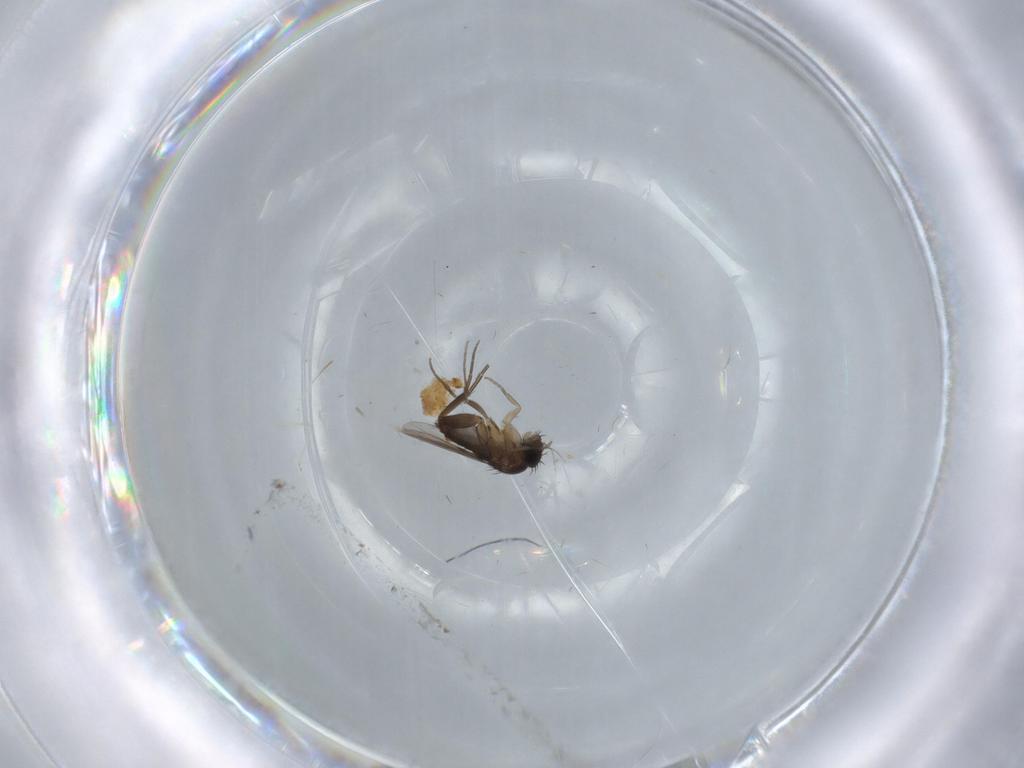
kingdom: Animalia
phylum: Arthropoda
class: Insecta
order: Diptera
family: Phoridae
